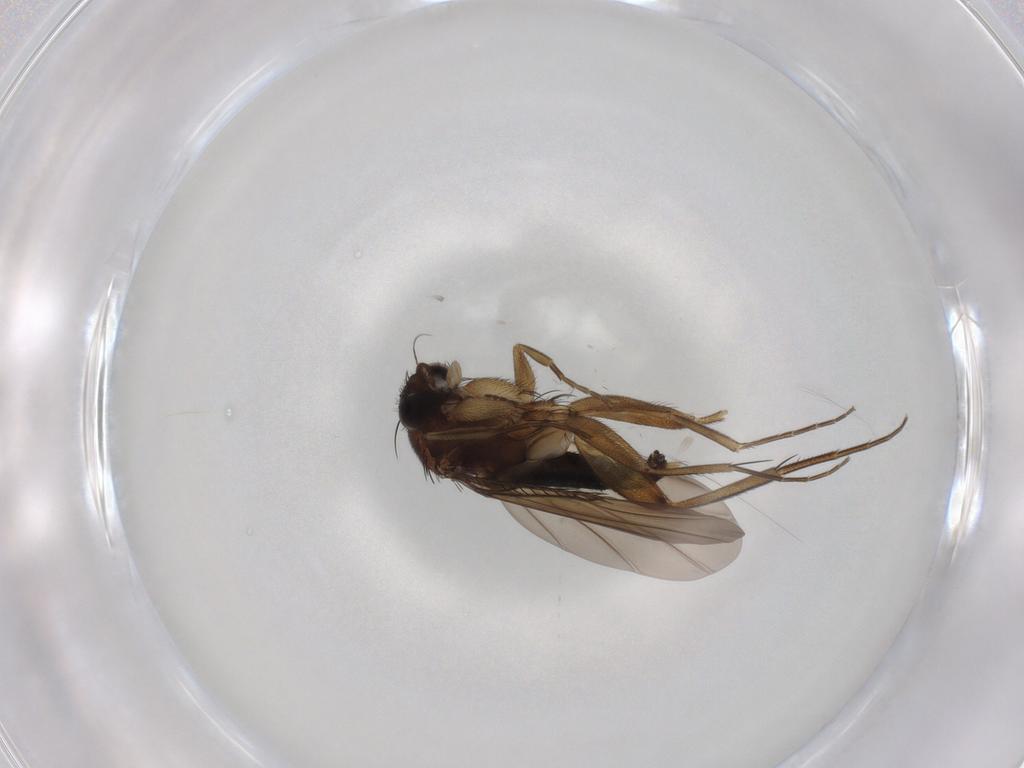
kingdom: Animalia
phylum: Arthropoda
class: Insecta
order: Diptera
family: Phoridae
